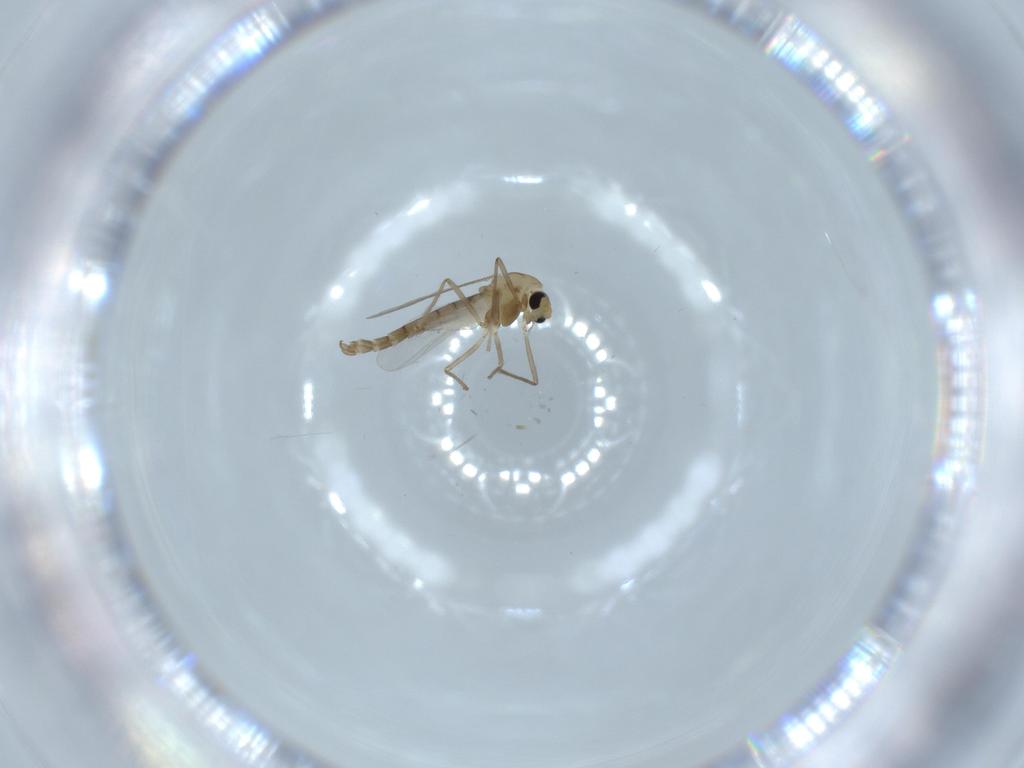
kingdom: Animalia
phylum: Arthropoda
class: Insecta
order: Diptera
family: Chironomidae
